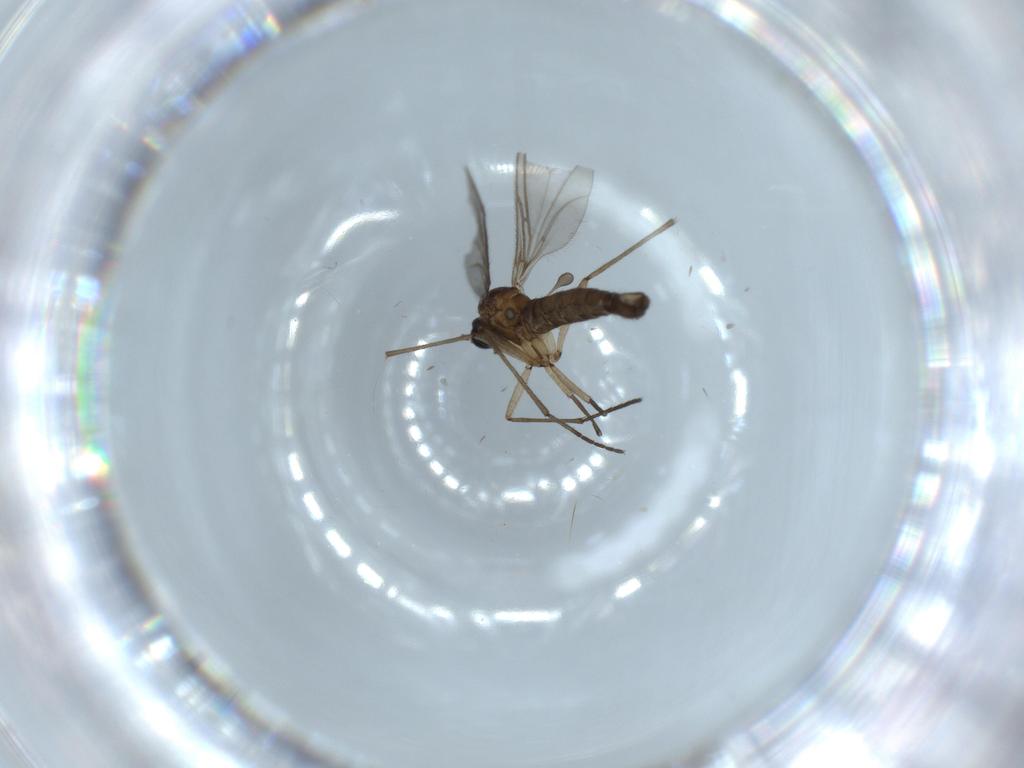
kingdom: Animalia
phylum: Arthropoda
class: Insecta
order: Diptera
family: Chironomidae
